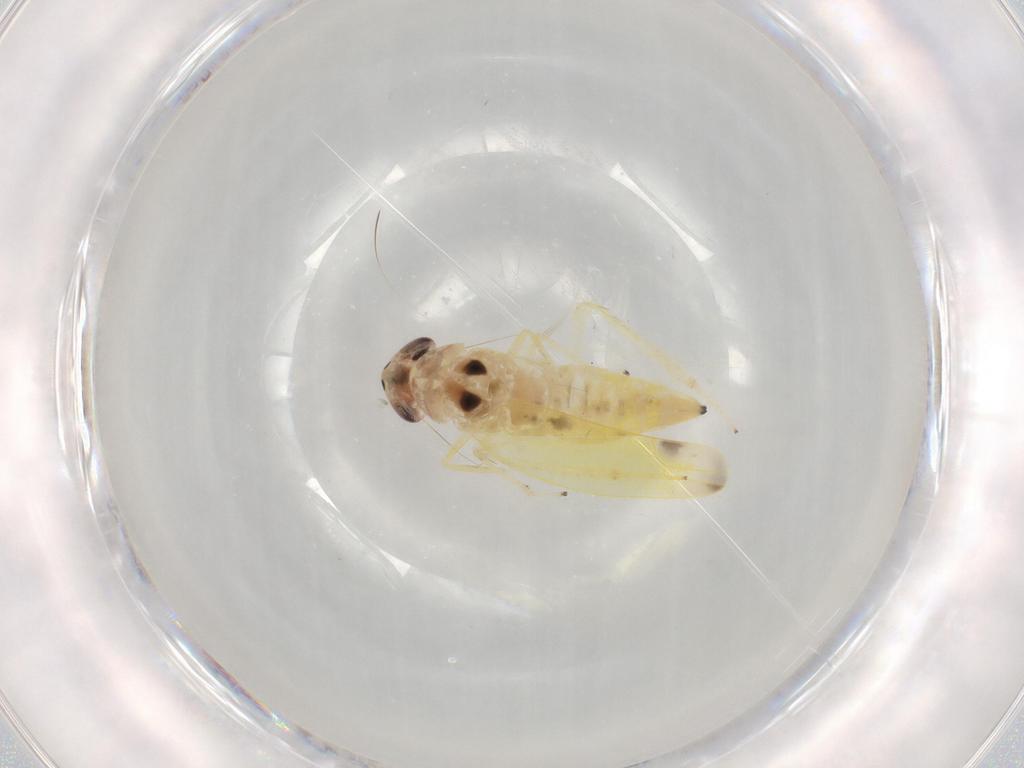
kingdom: Animalia
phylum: Arthropoda
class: Insecta
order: Hemiptera
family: Cicadellidae
